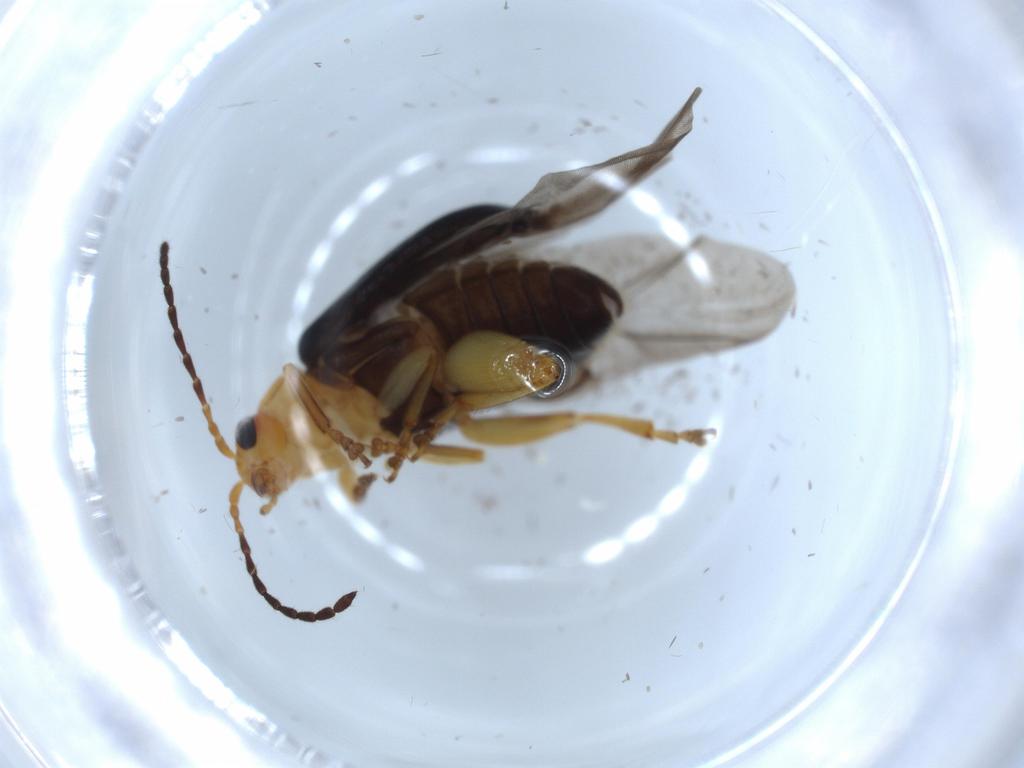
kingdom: Animalia
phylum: Arthropoda
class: Insecta
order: Coleoptera
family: Chrysomelidae
